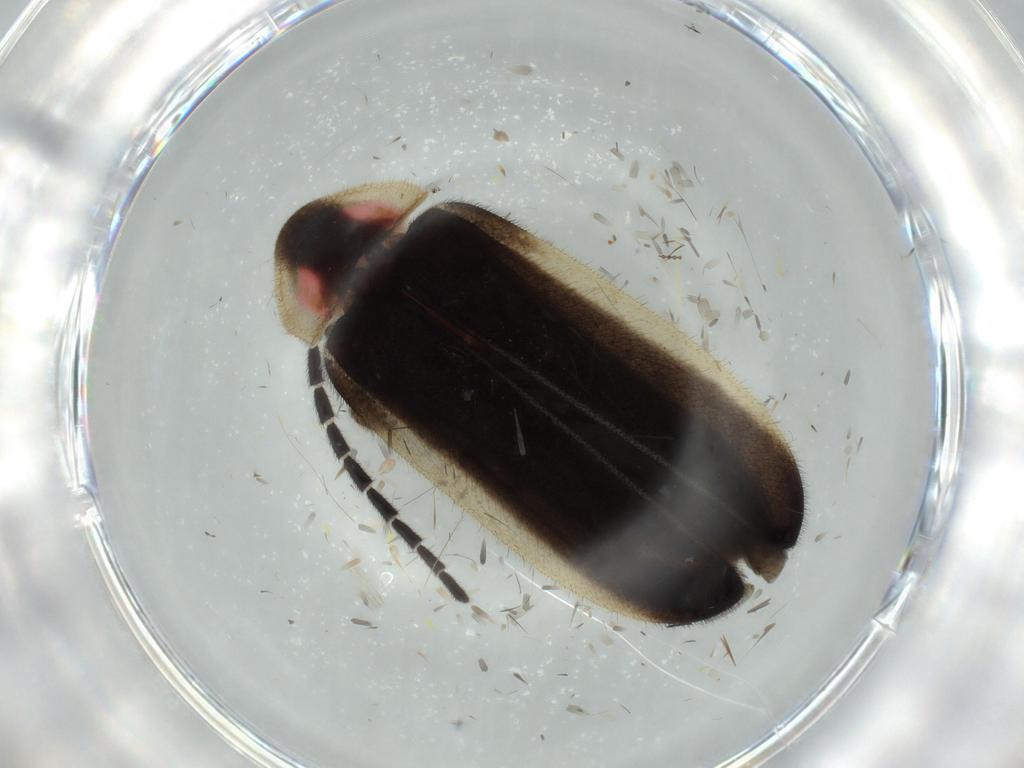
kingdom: Animalia
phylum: Arthropoda
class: Insecta
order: Coleoptera
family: Lampyridae
